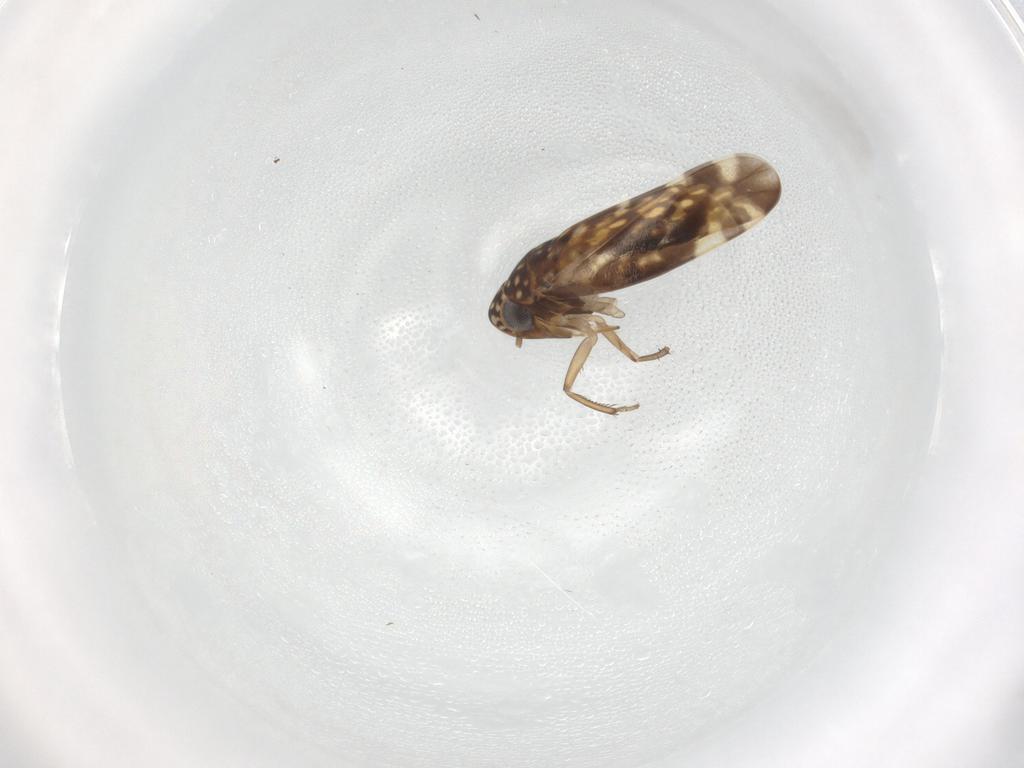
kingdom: Animalia
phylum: Arthropoda
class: Insecta
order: Hemiptera
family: Cicadellidae
